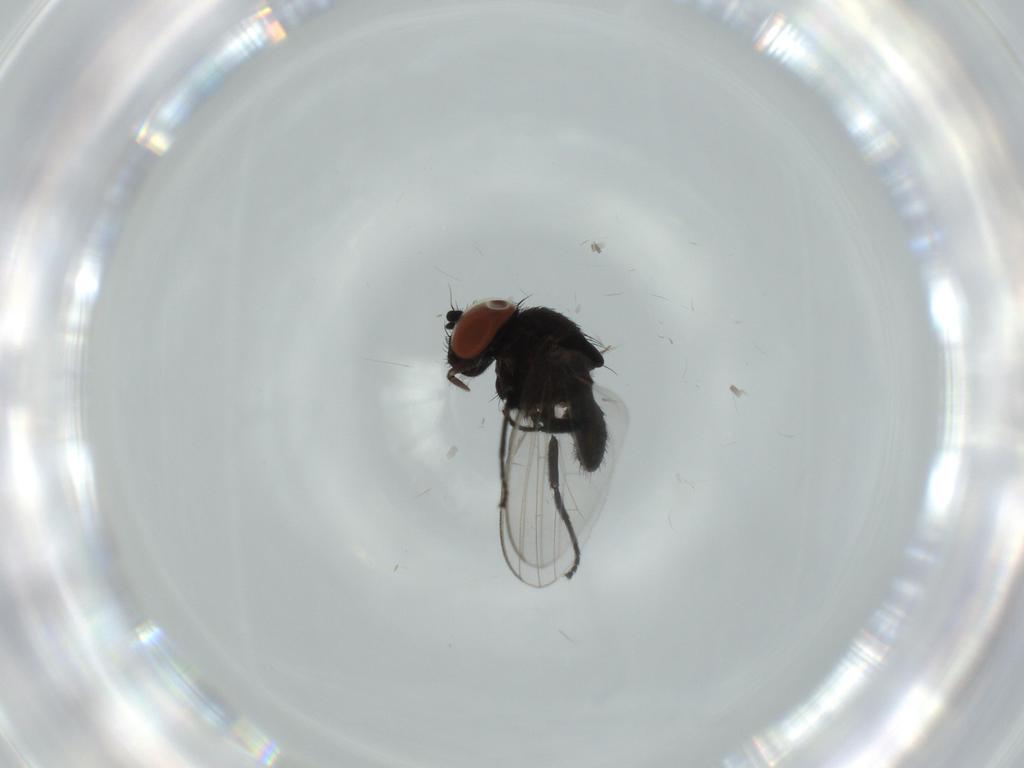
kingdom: Animalia
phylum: Arthropoda
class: Insecta
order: Diptera
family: Milichiidae
